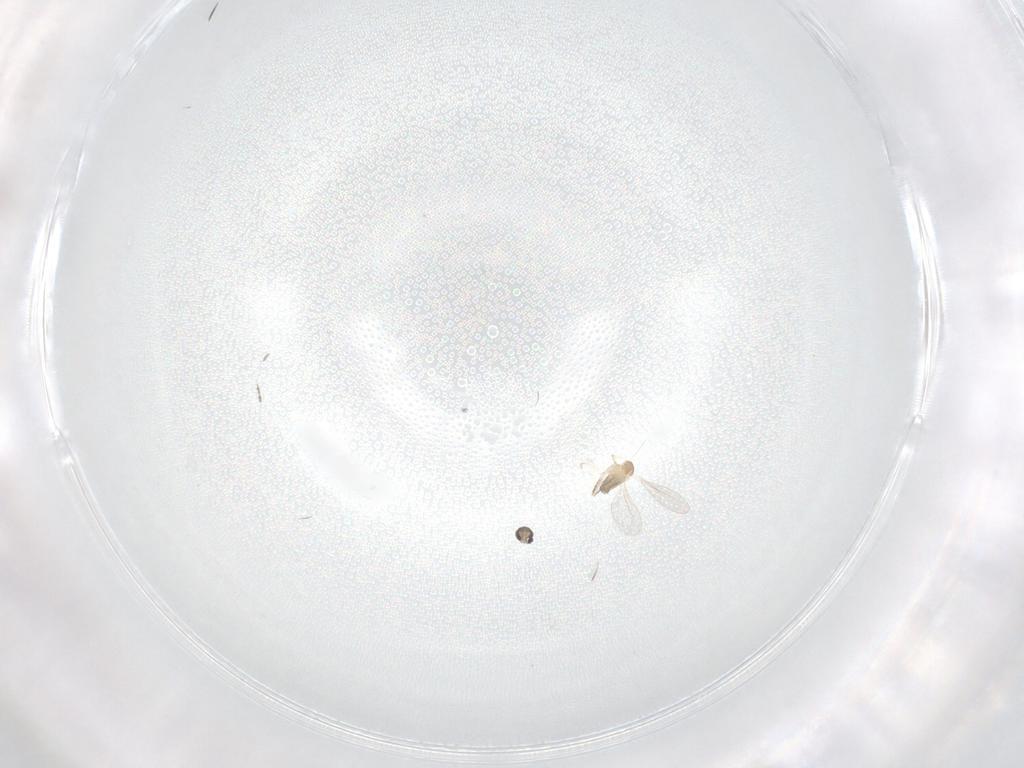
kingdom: Animalia
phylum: Arthropoda
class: Insecta
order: Diptera
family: Cecidomyiidae
